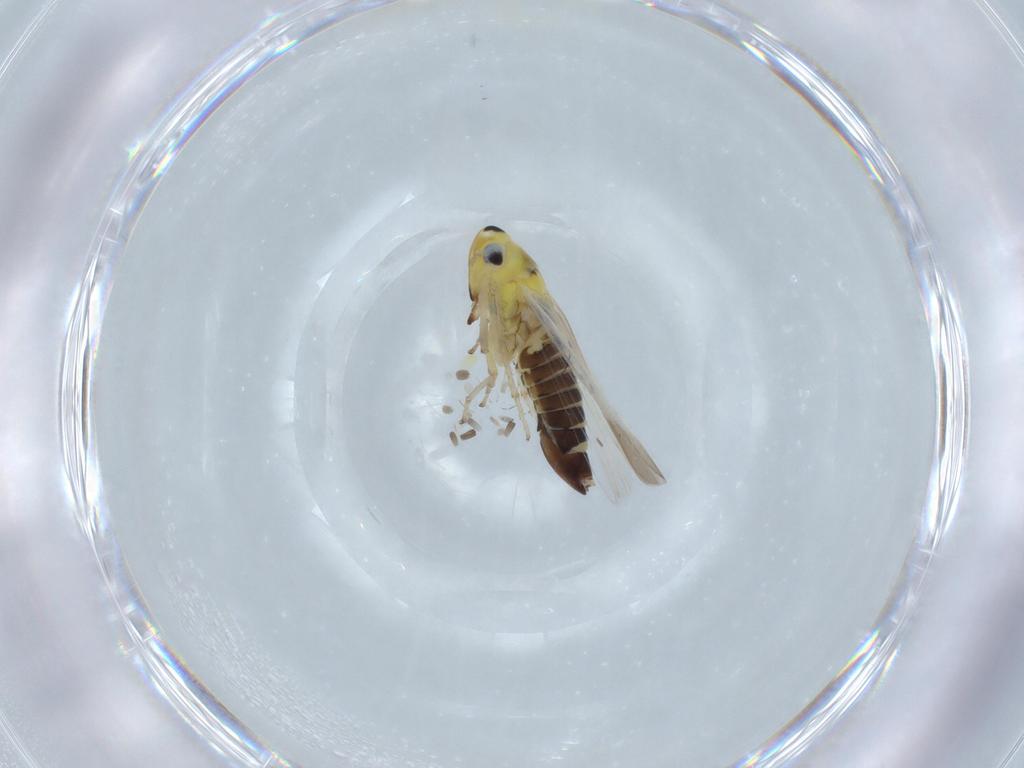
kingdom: Animalia
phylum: Arthropoda
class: Insecta
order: Hemiptera
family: Cicadellidae
